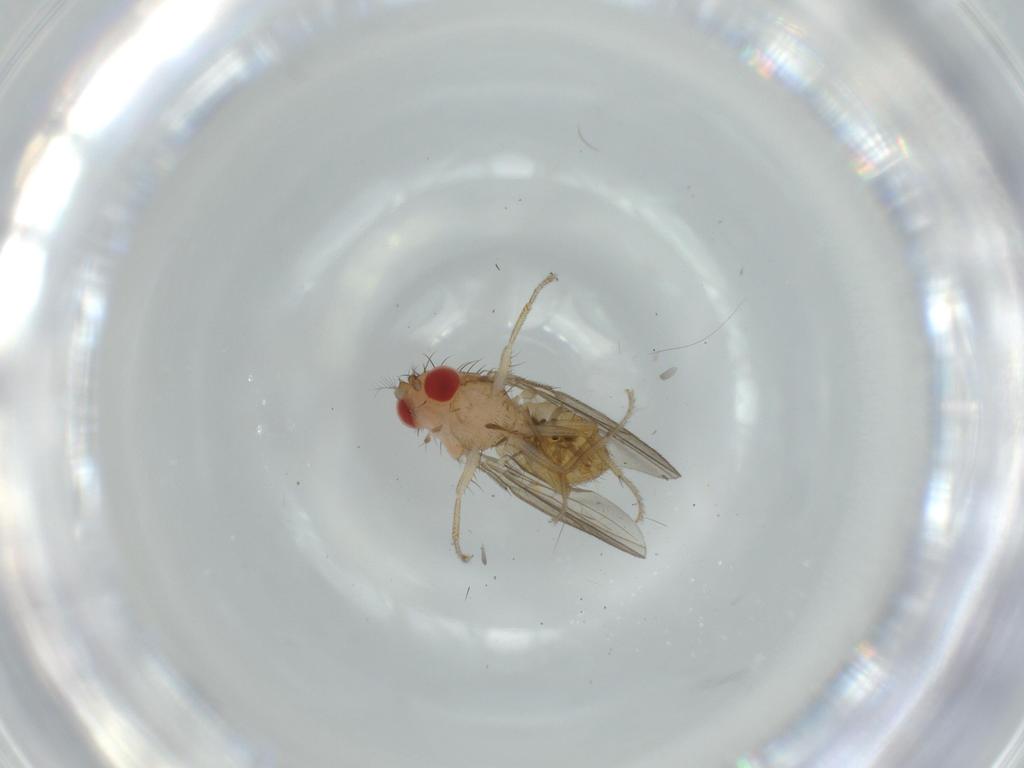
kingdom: Animalia
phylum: Arthropoda
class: Insecta
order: Diptera
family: Drosophilidae
